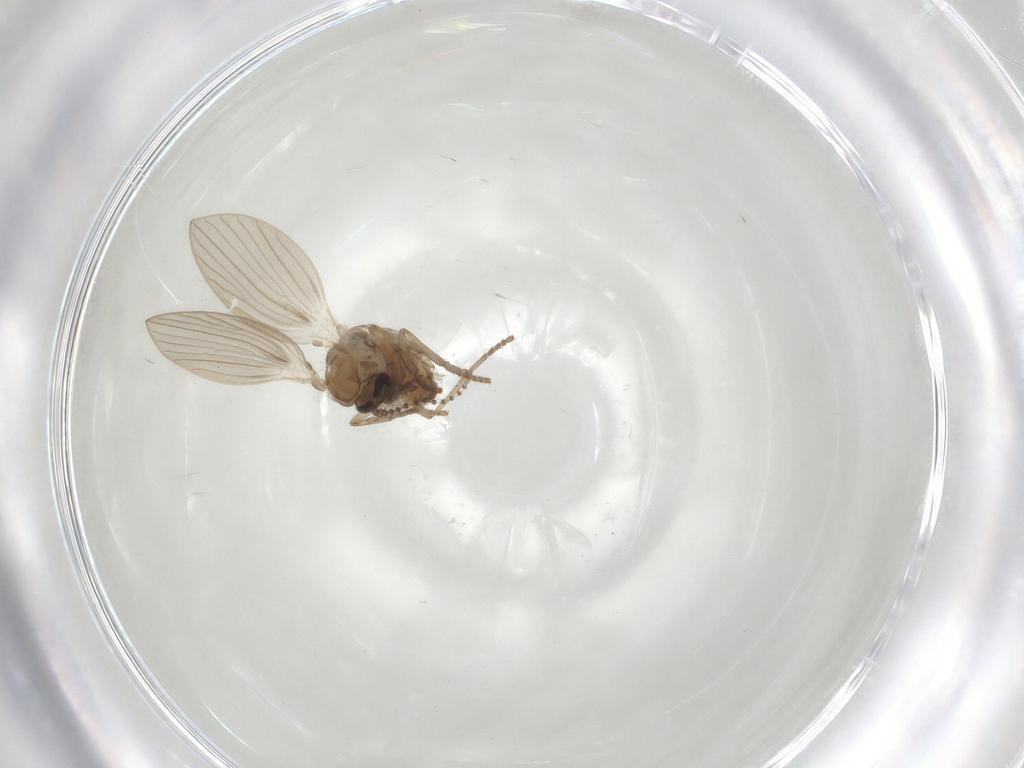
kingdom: Animalia
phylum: Arthropoda
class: Insecta
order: Diptera
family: Psychodidae
